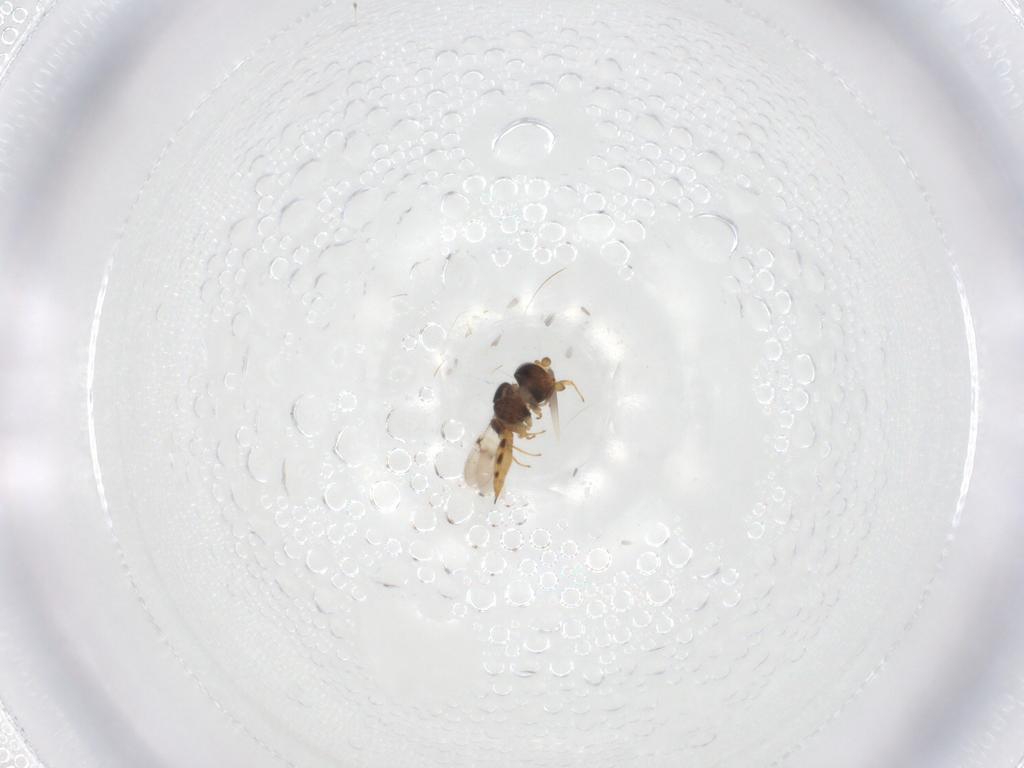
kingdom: Animalia
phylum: Arthropoda
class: Insecta
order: Hymenoptera
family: Scelionidae
